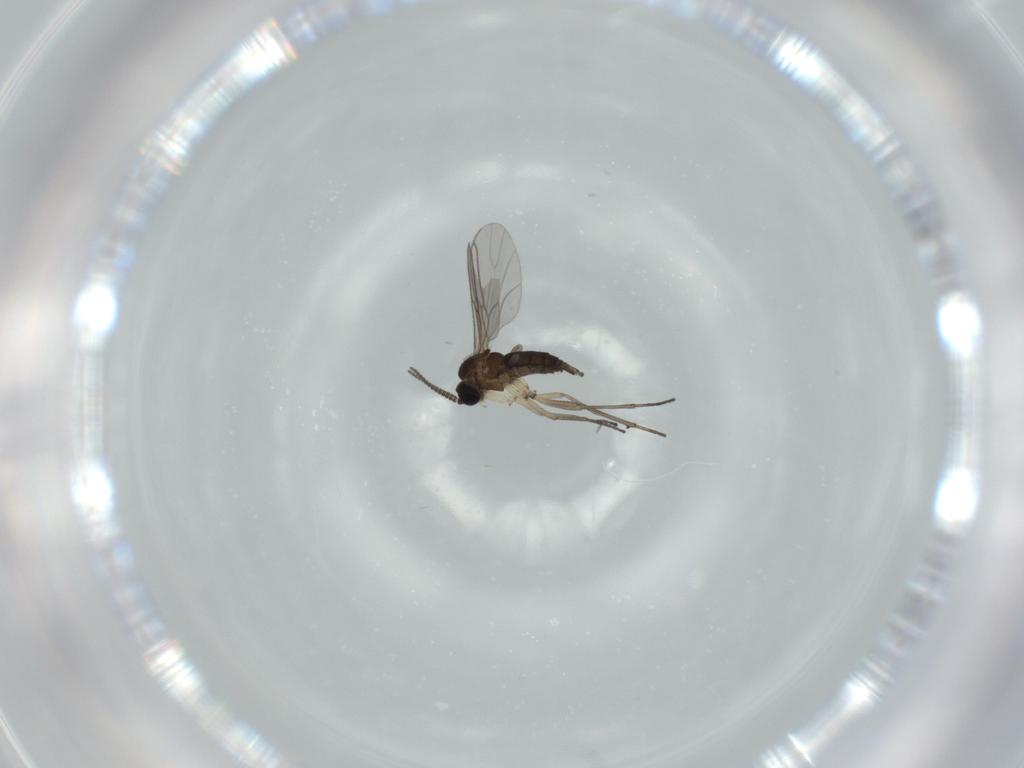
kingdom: Animalia
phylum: Arthropoda
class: Insecta
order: Diptera
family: Sciaridae
